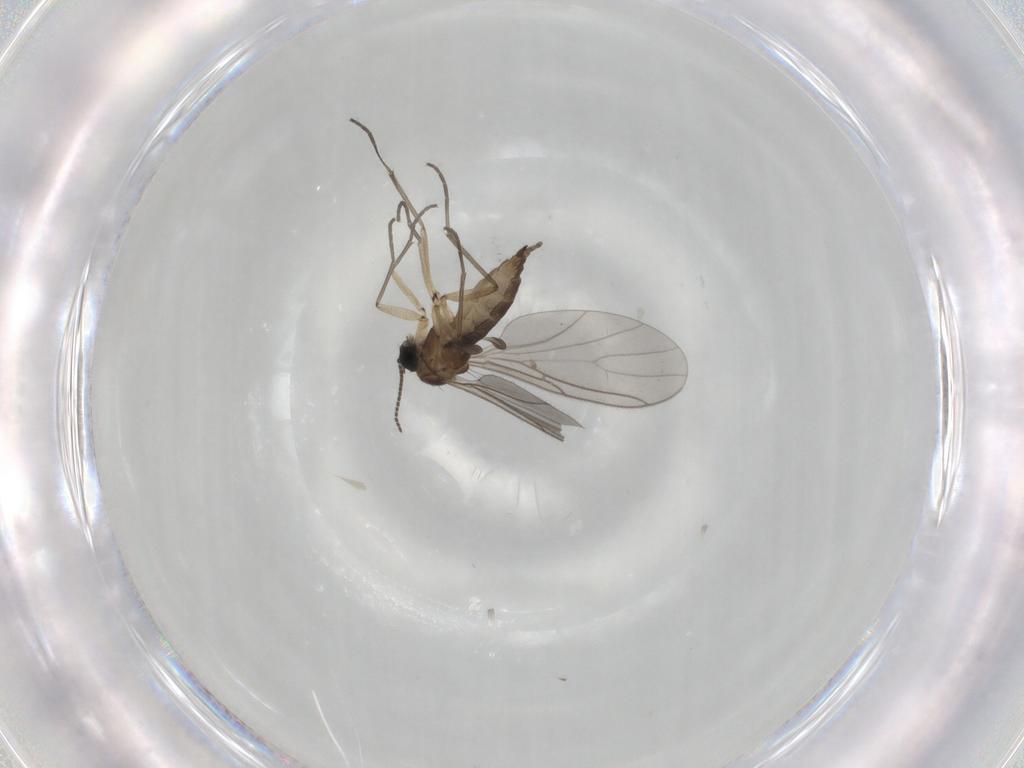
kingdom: Animalia
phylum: Arthropoda
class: Insecta
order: Diptera
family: Sciaridae
